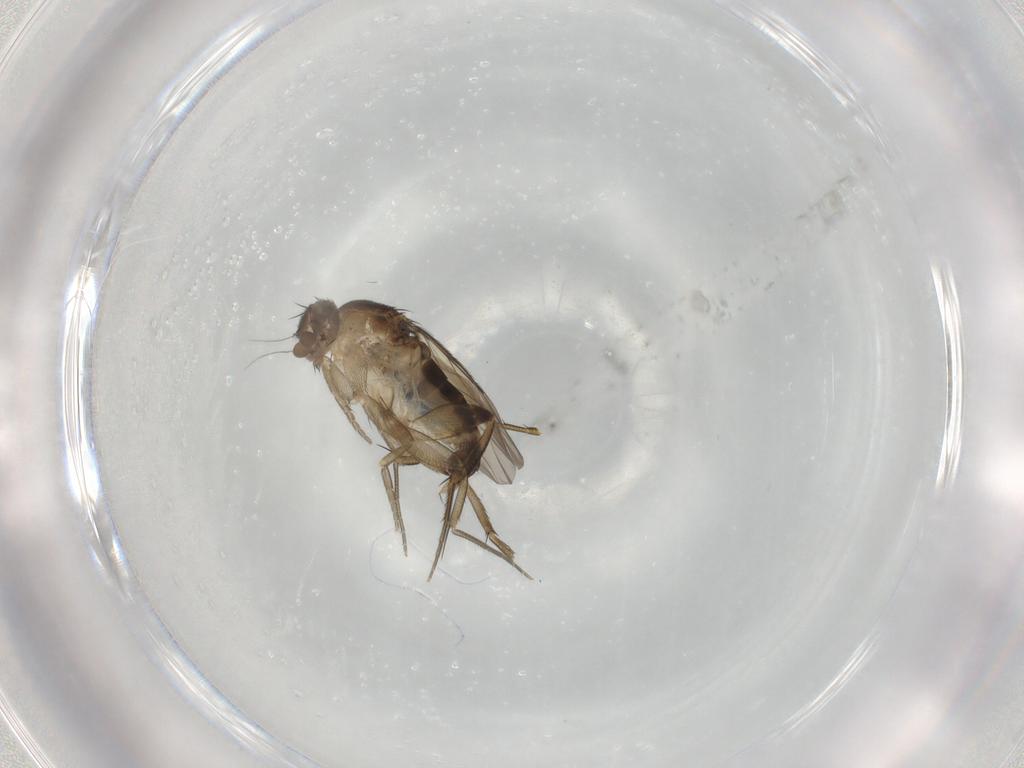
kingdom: Animalia
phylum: Arthropoda
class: Insecta
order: Diptera
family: Phoridae
